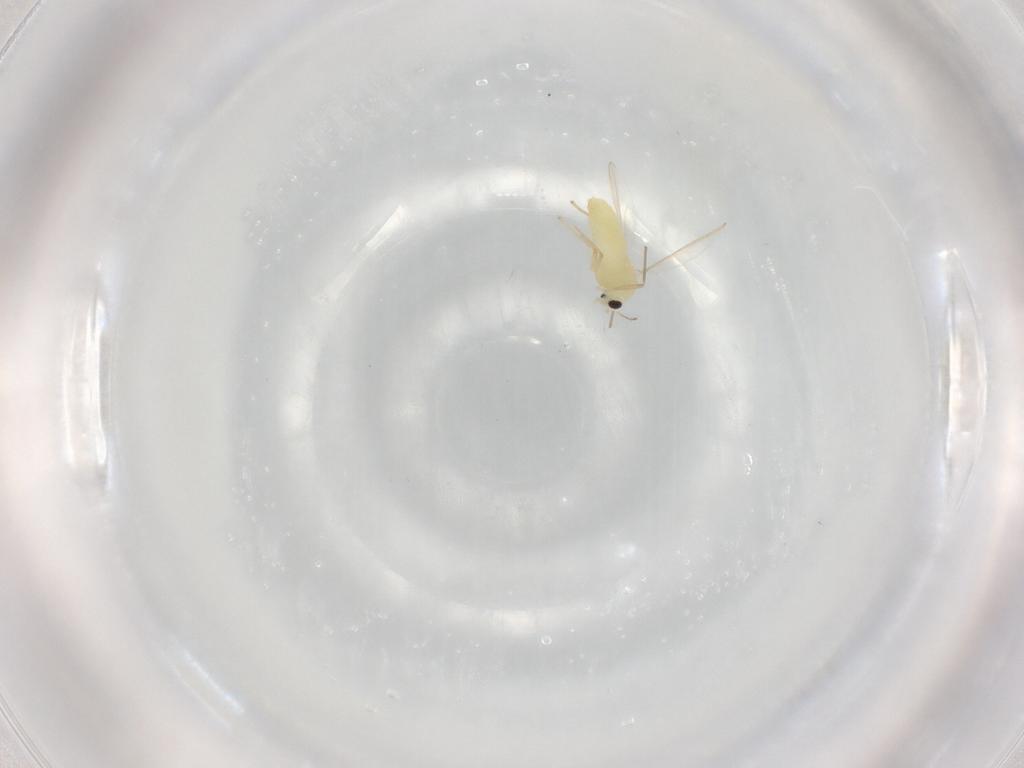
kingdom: Animalia
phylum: Arthropoda
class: Insecta
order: Diptera
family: Chironomidae
